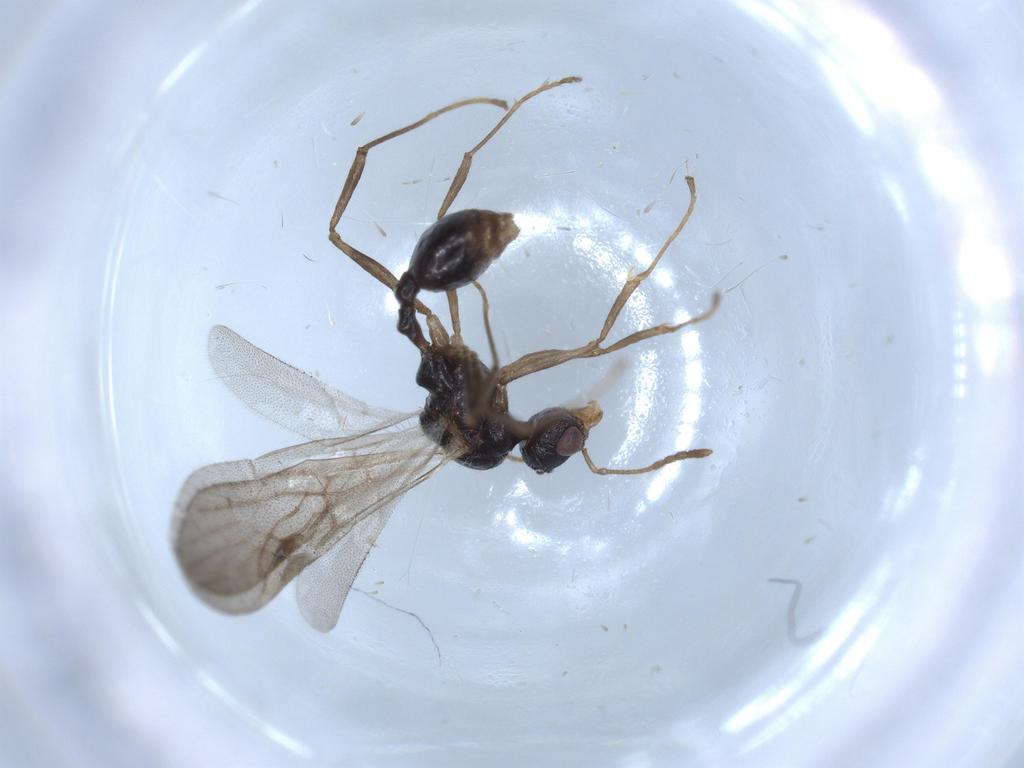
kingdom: Animalia
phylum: Arthropoda
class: Insecta
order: Hymenoptera
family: Formicidae
